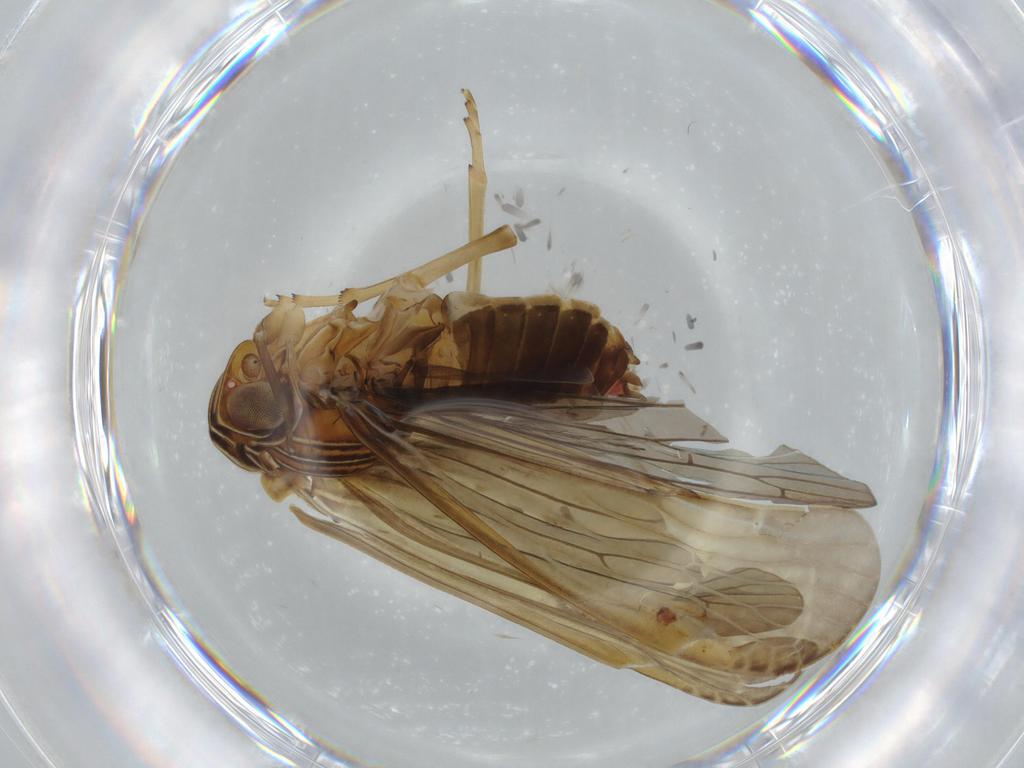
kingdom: Animalia
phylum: Arthropoda
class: Insecta
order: Hemiptera
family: Achilidae
